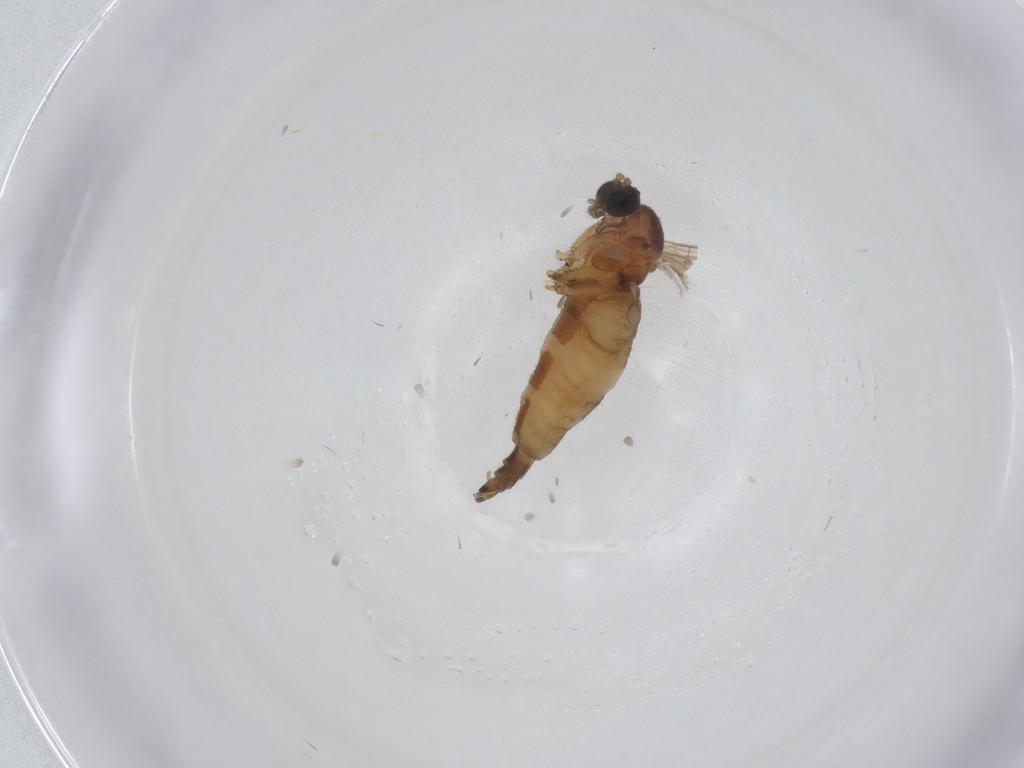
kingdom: Animalia
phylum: Arthropoda
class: Insecta
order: Diptera
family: Sciaridae
